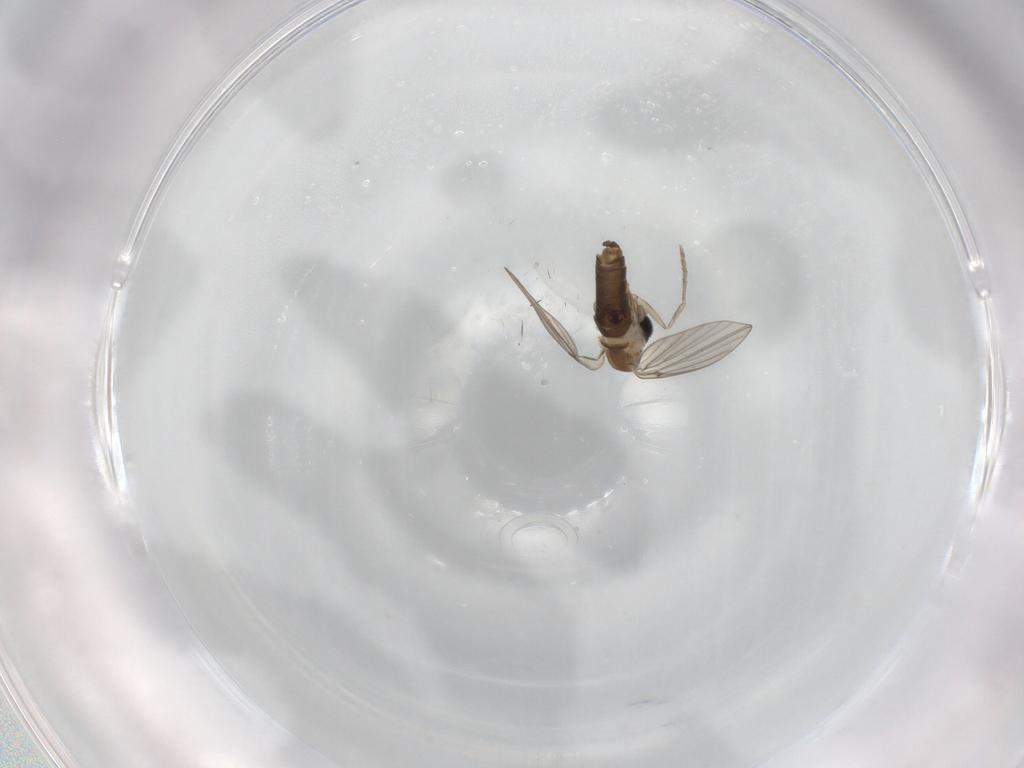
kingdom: Animalia
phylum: Arthropoda
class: Insecta
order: Diptera
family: Psychodidae
